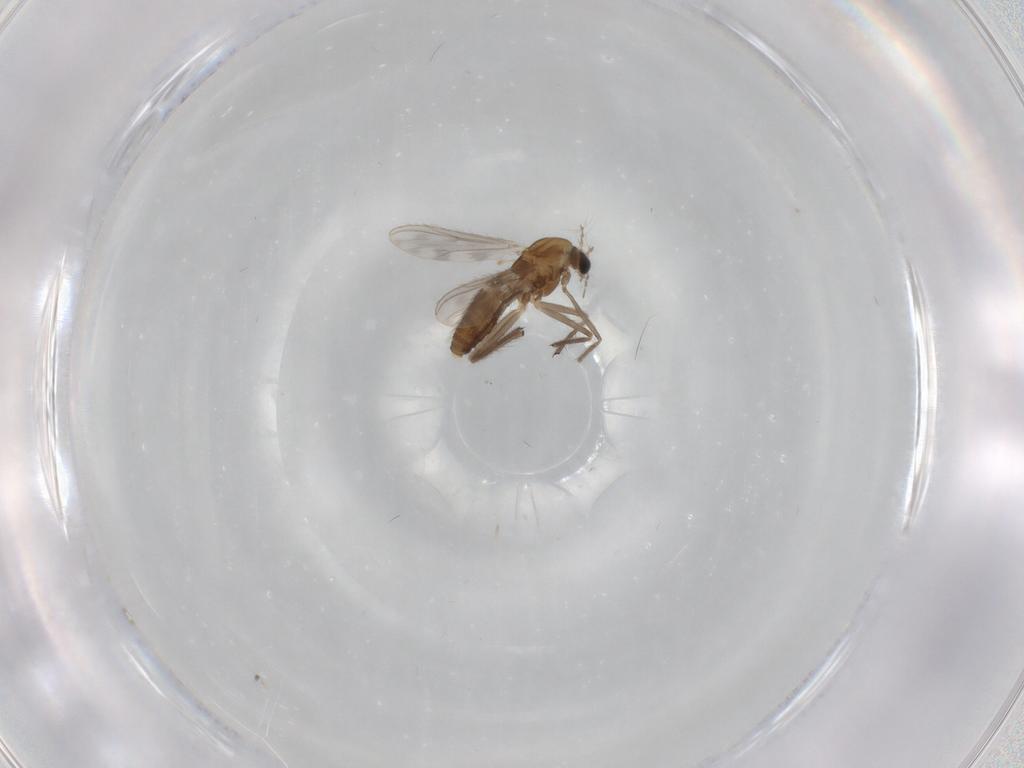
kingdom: Animalia
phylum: Arthropoda
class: Insecta
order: Diptera
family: Chironomidae
